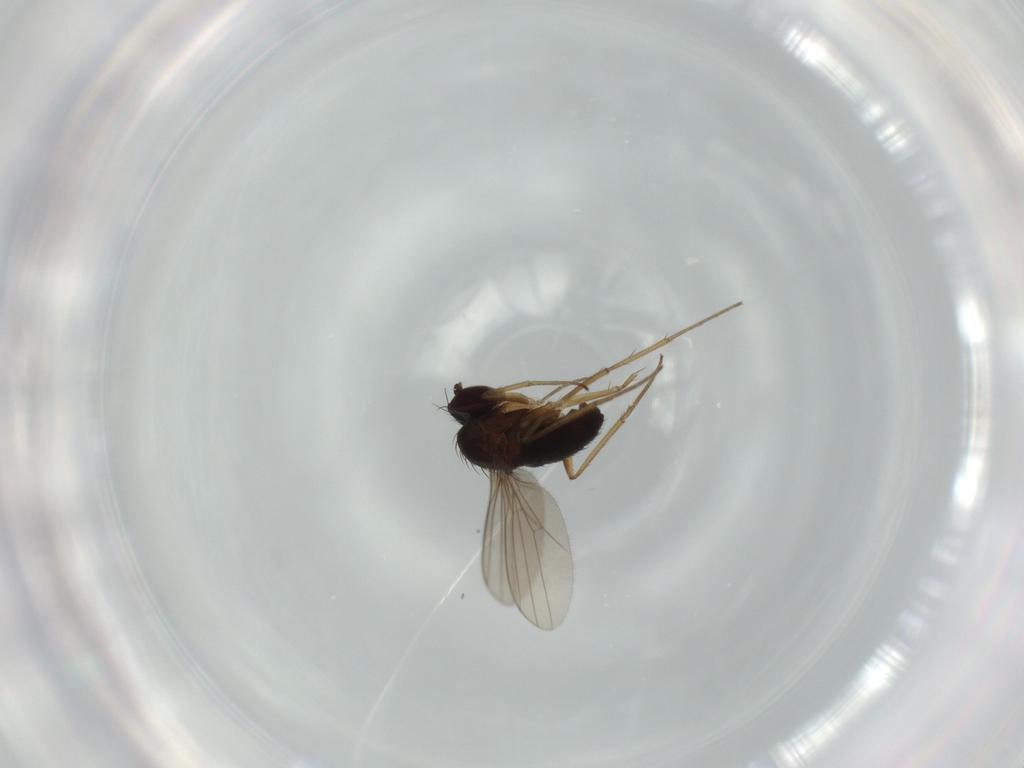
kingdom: Animalia
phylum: Arthropoda
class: Insecta
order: Diptera
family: Dolichopodidae
